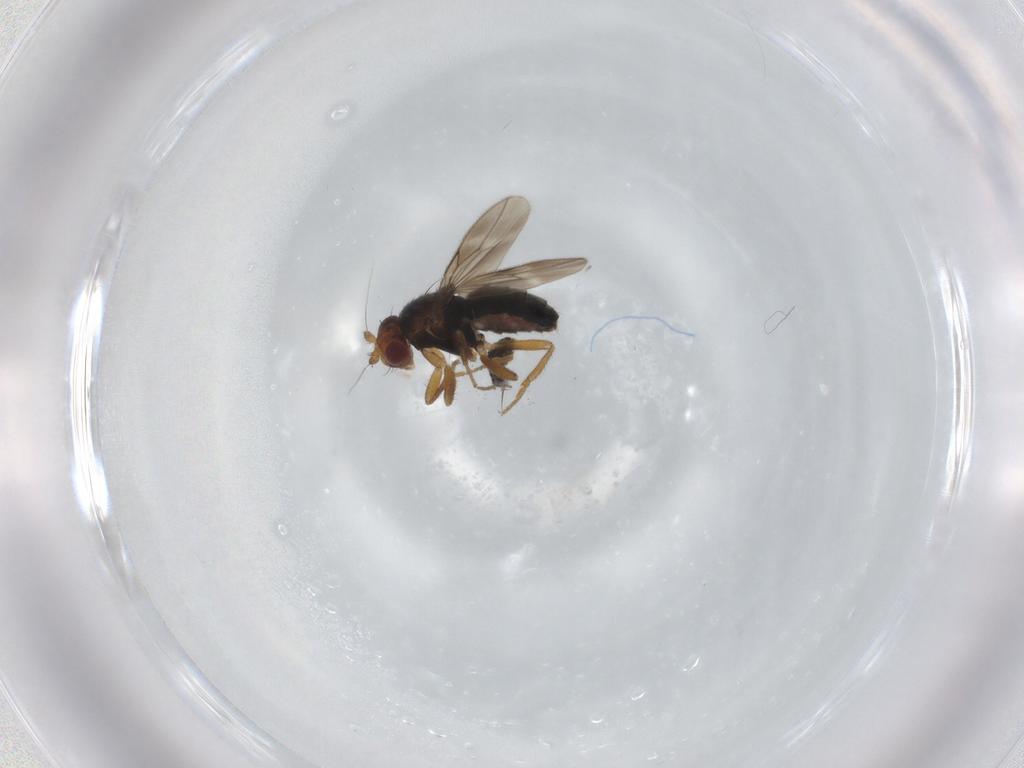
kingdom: Animalia
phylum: Arthropoda
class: Insecta
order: Diptera
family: Sphaeroceridae
